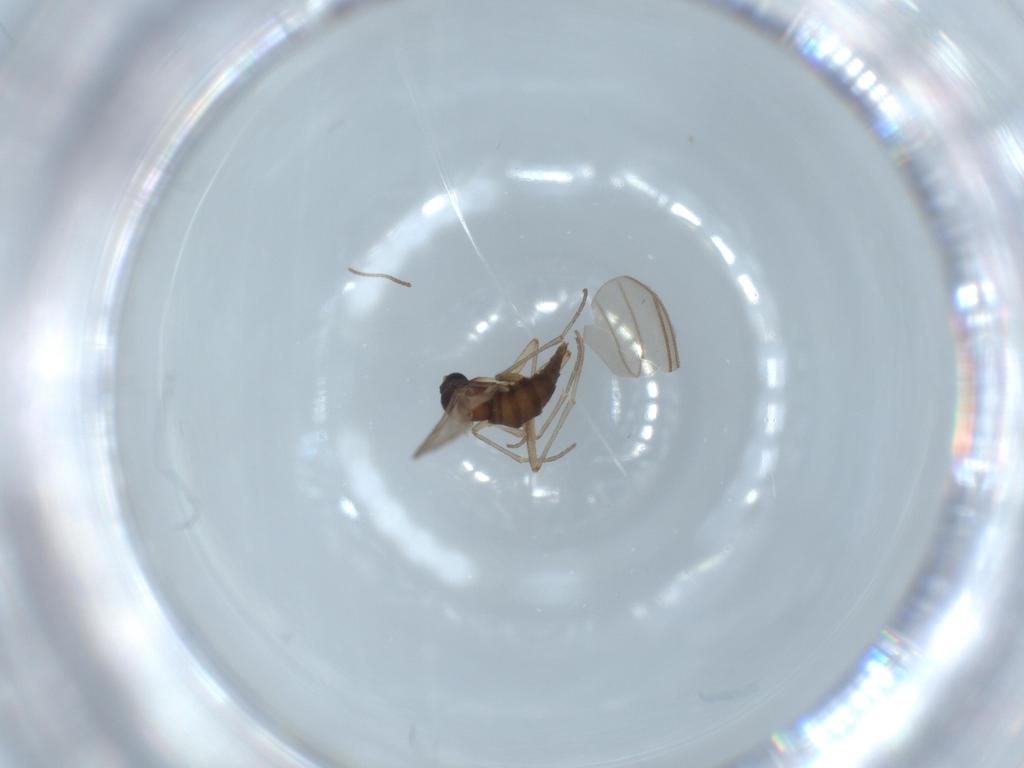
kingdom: Animalia
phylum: Arthropoda
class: Insecta
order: Diptera
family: Sciaridae
